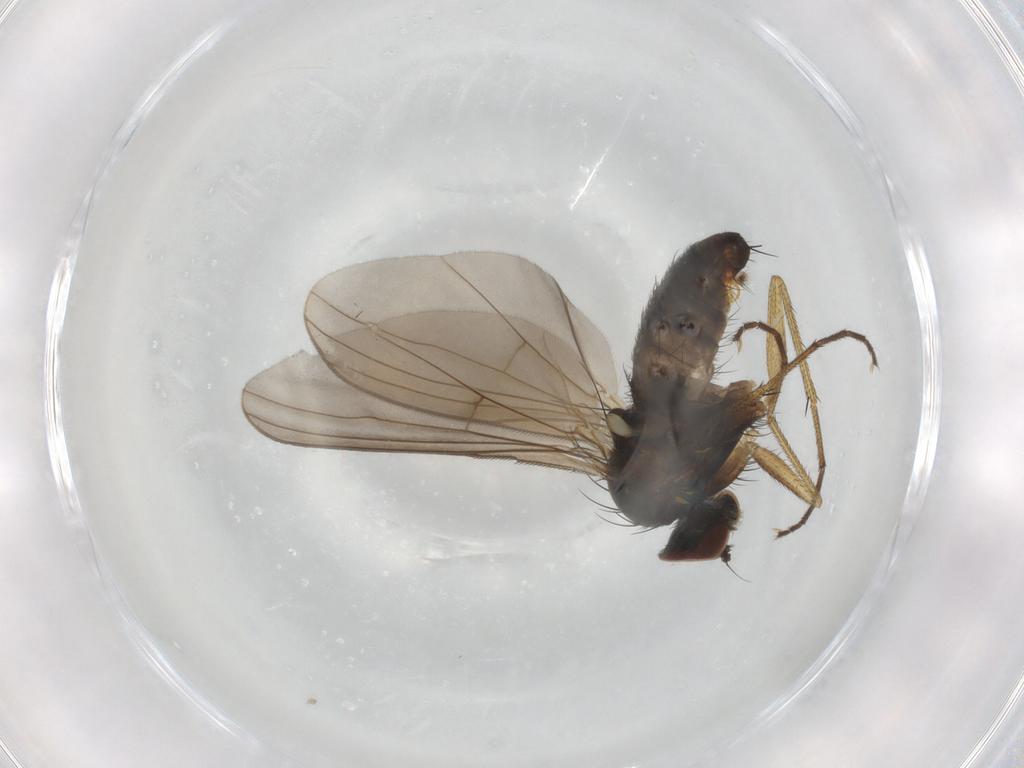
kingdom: Animalia
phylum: Arthropoda
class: Insecta
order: Diptera
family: Dolichopodidae
